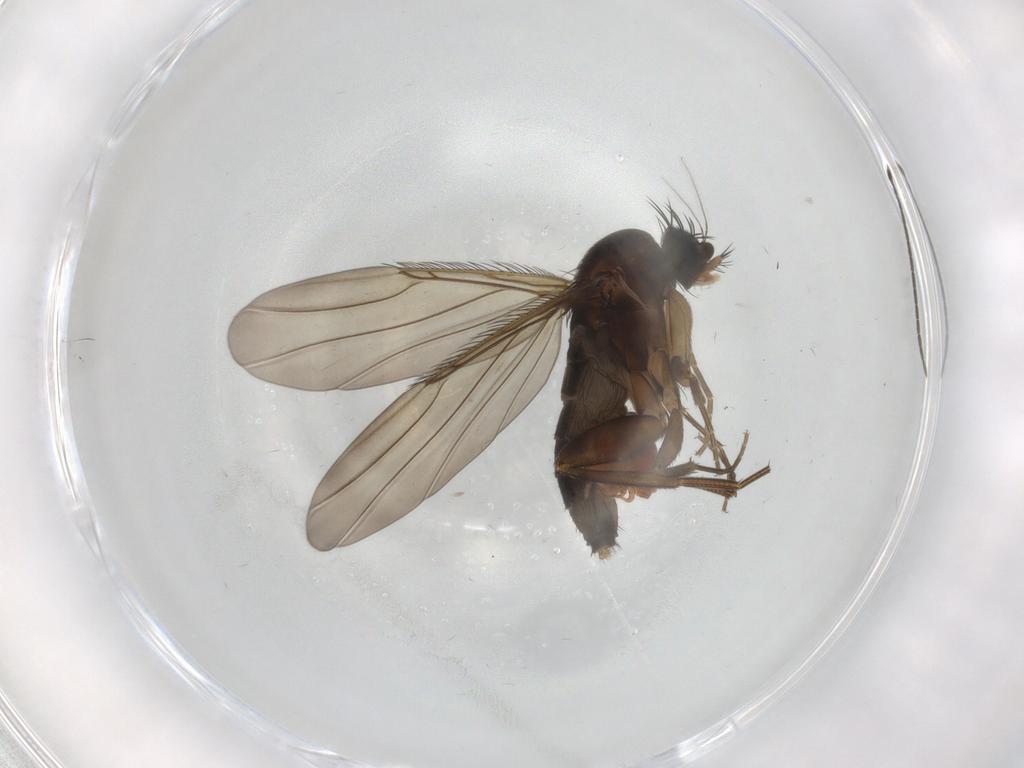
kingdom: Animalia
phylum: Arthropoda
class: Insecta
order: Diptera
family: Phoridae
